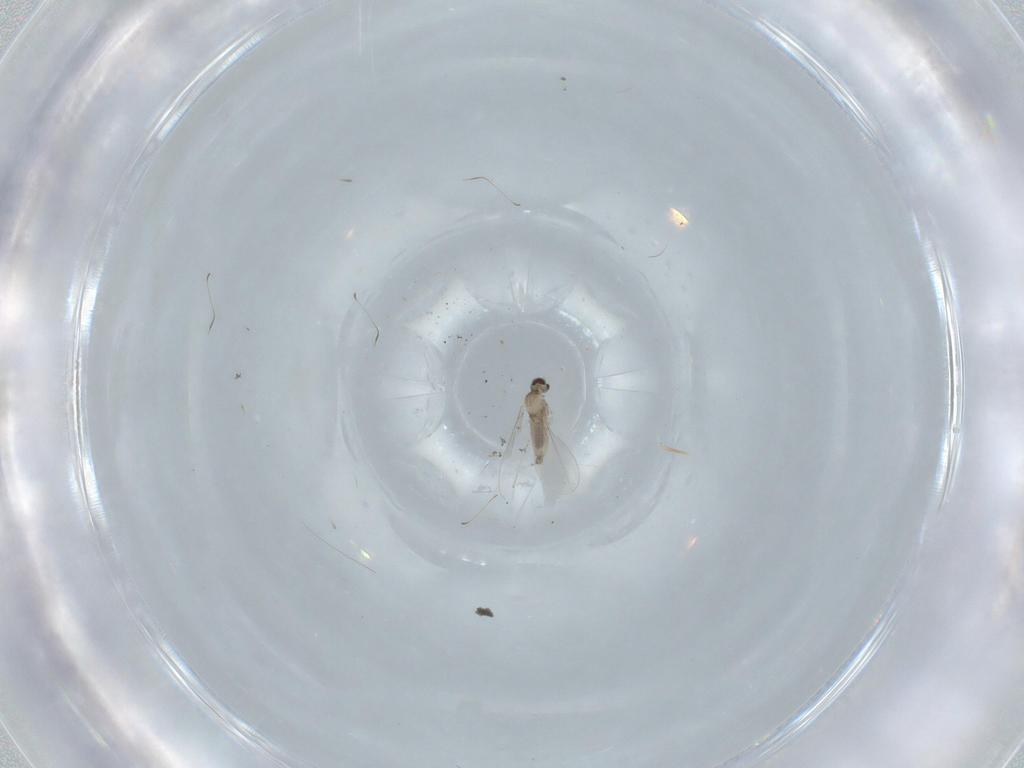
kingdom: Animalia
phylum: Arthropoda
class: Insecta
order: Diptera
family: Cecidomyiidae
